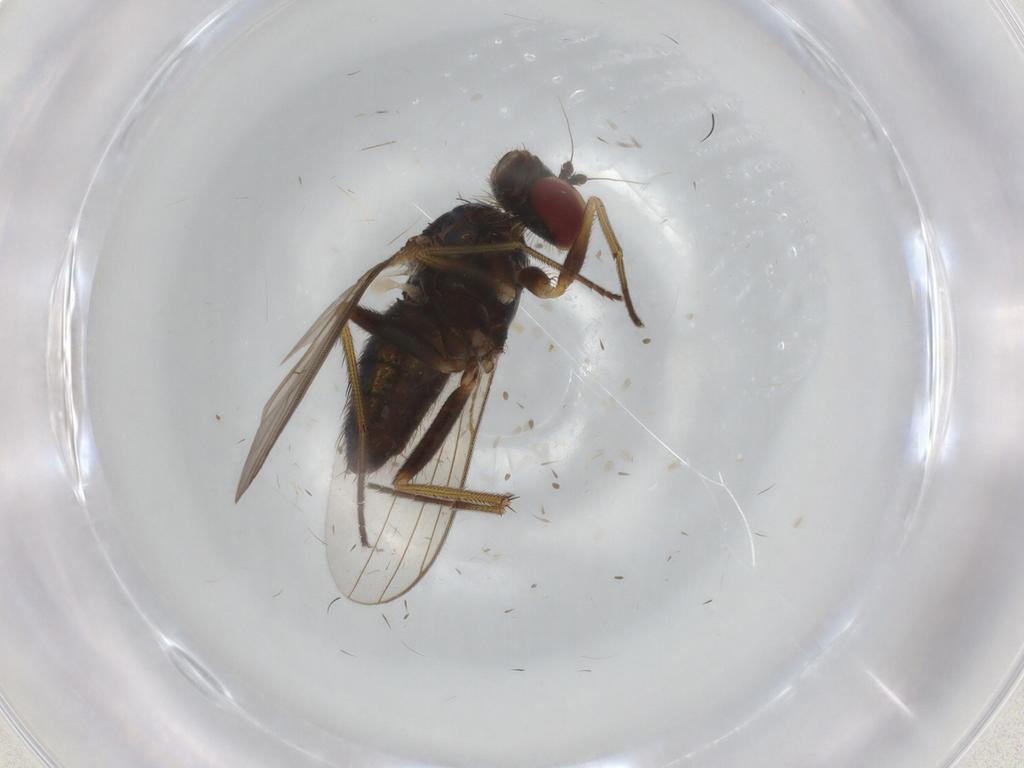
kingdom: Animalia
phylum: Arthropoda
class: Insecta
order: Diptera
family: Dolichopodidae
